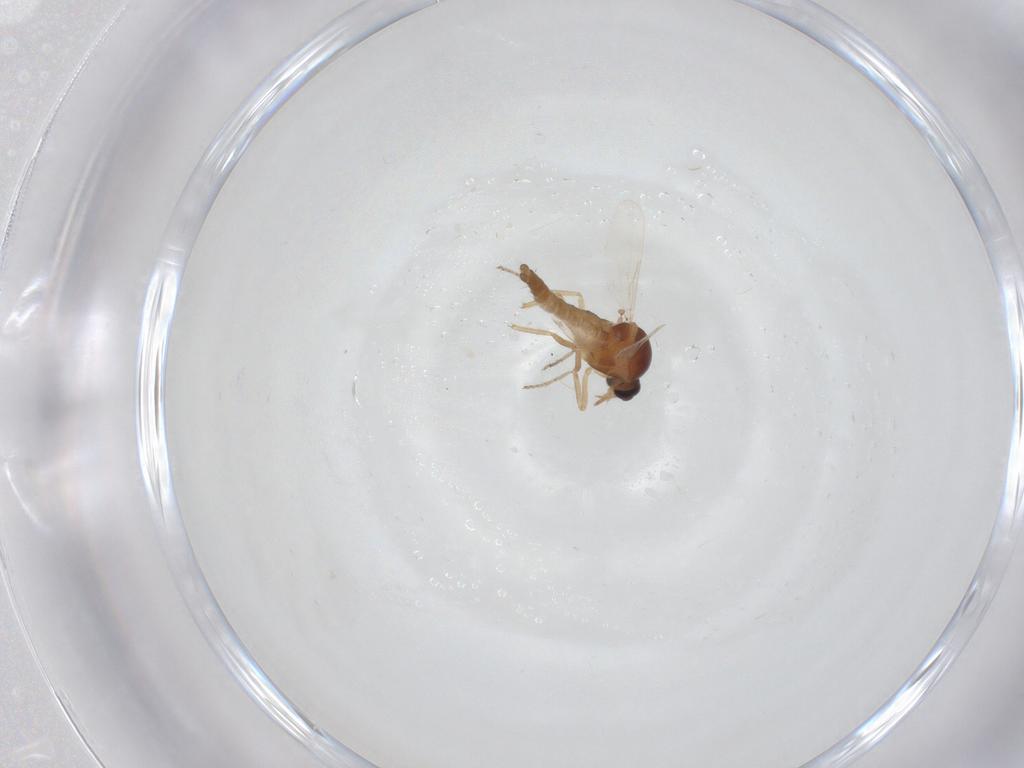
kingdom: Animalia
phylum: Arthropoda
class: Insecta
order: Diptera
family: Ceratopogonidae
